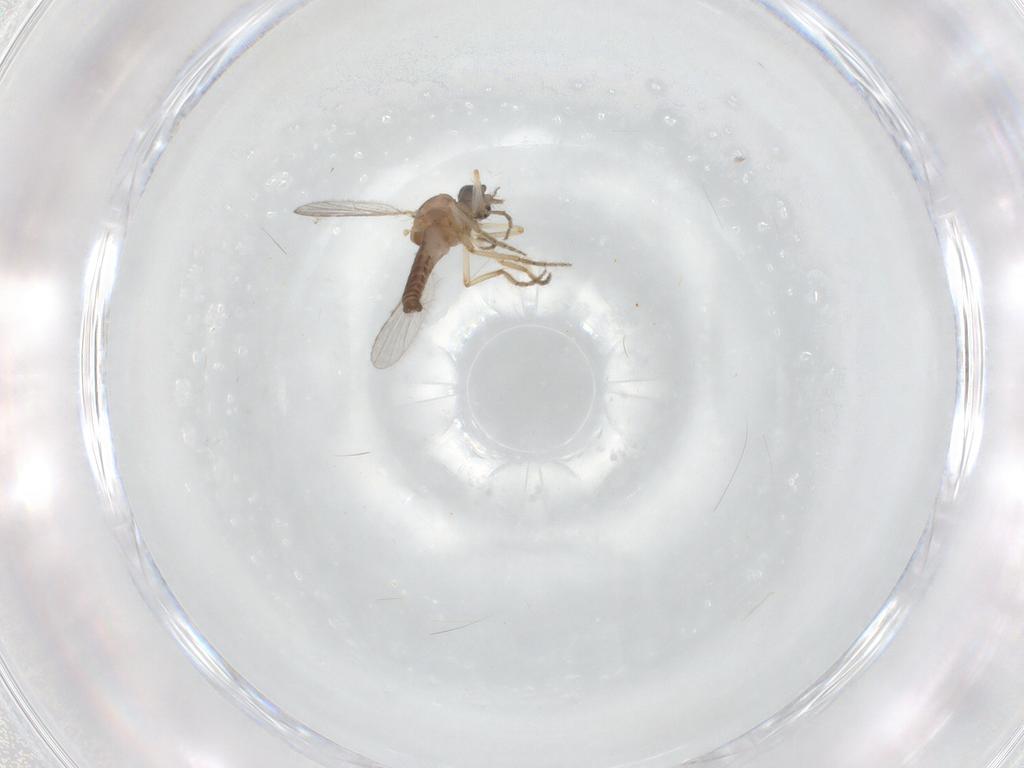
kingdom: Animalia
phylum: Arthropoda
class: Insecta
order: Diptera
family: Ceratopogonidae
